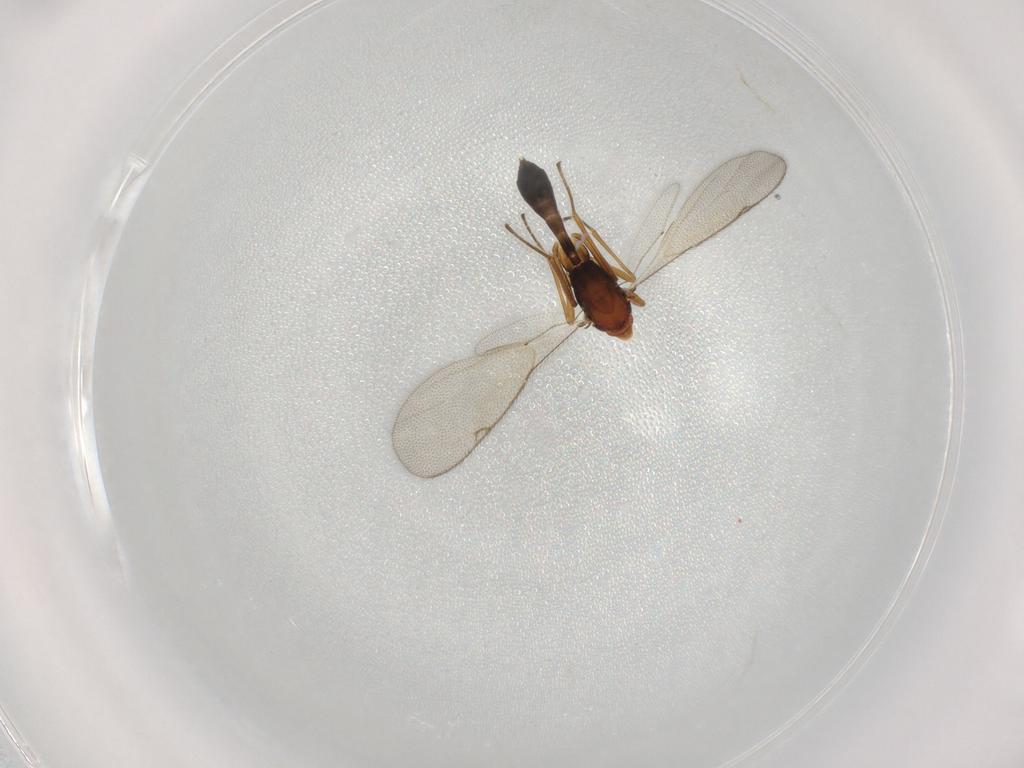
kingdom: Animalia
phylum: Arthropoda
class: Insecta
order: Hymenoptera
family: Pteromalidae
